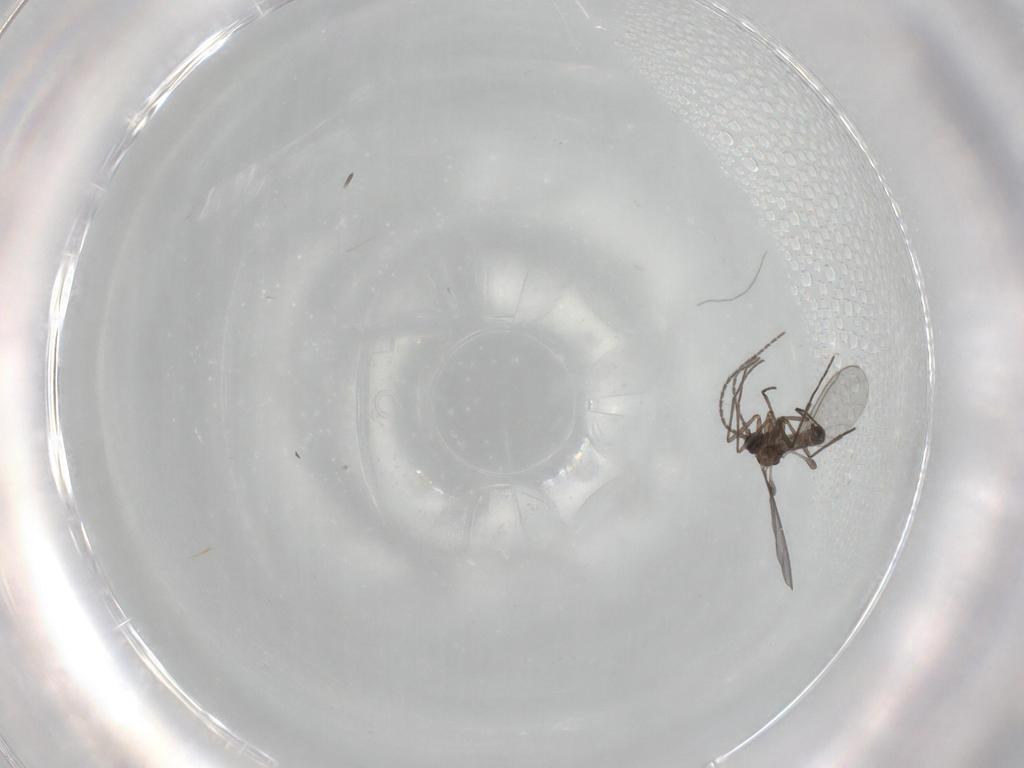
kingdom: Animalia
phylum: Arthropoda
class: Insecta
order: Diptera
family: Sciaridae
